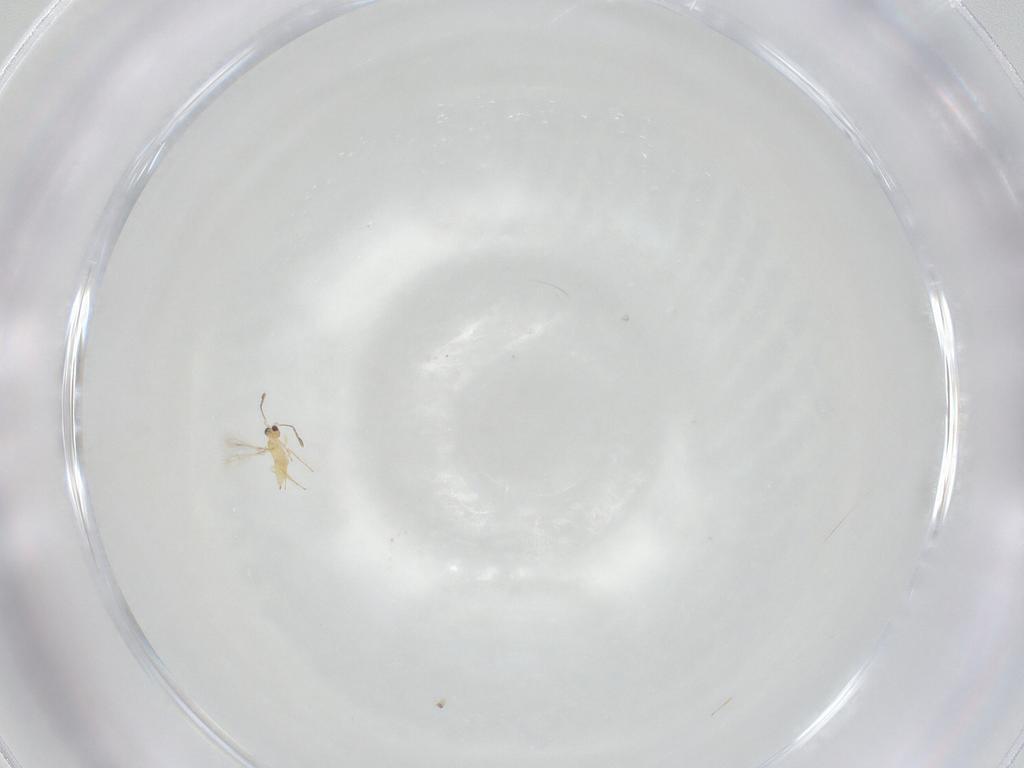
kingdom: Animalia
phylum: Arthropoda
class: Insecta
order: Hymenoptera
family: Mymaridae
